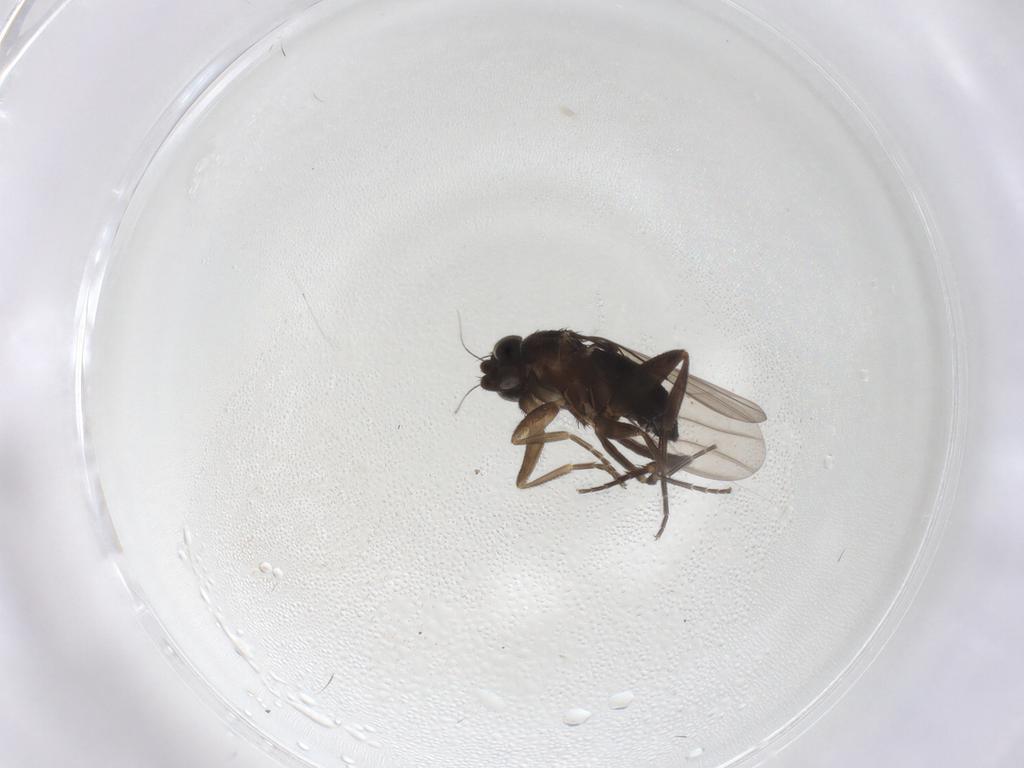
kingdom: Animalia
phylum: Arthropoda
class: Insecta
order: Diptera
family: Phoridae
